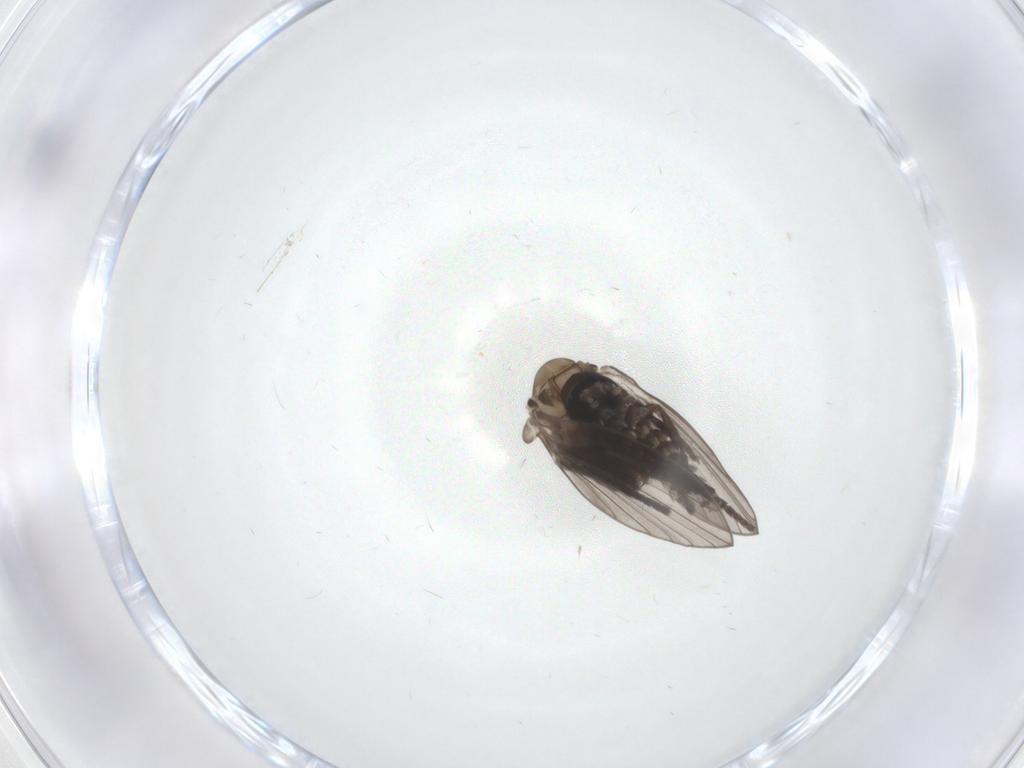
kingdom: Animalia
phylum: Arthropoda
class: Insecta
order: Diptera
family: Psychodidae
